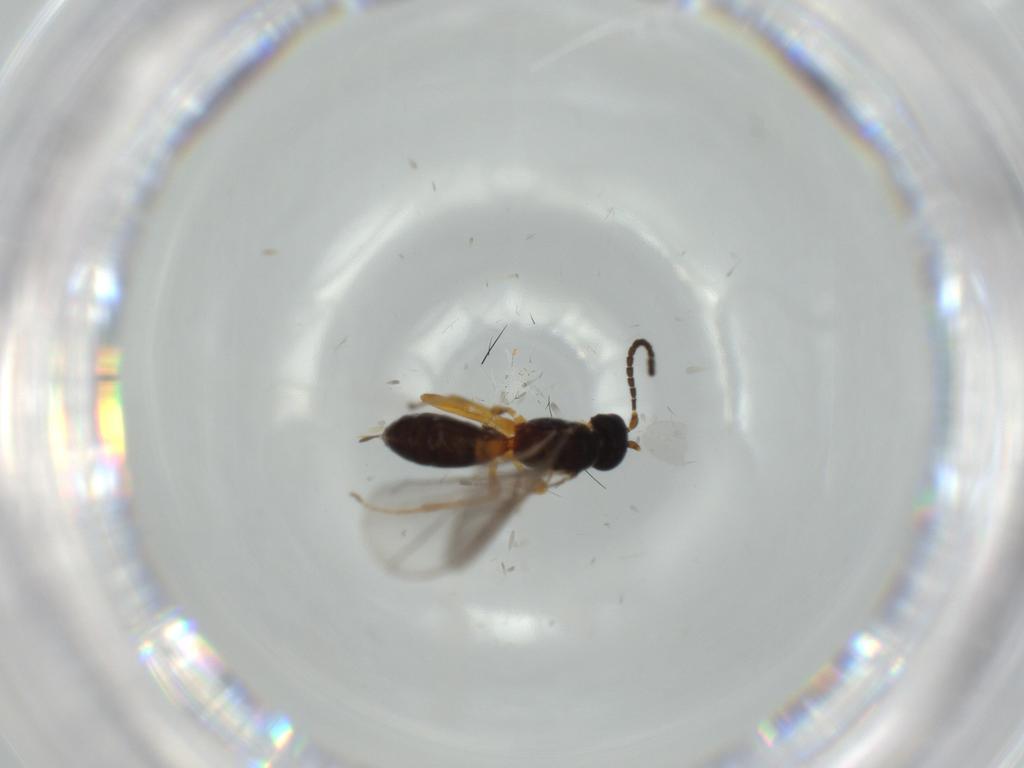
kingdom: Animalia
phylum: Arthropoda
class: Insecta
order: Hymenoptera
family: Braconidae
